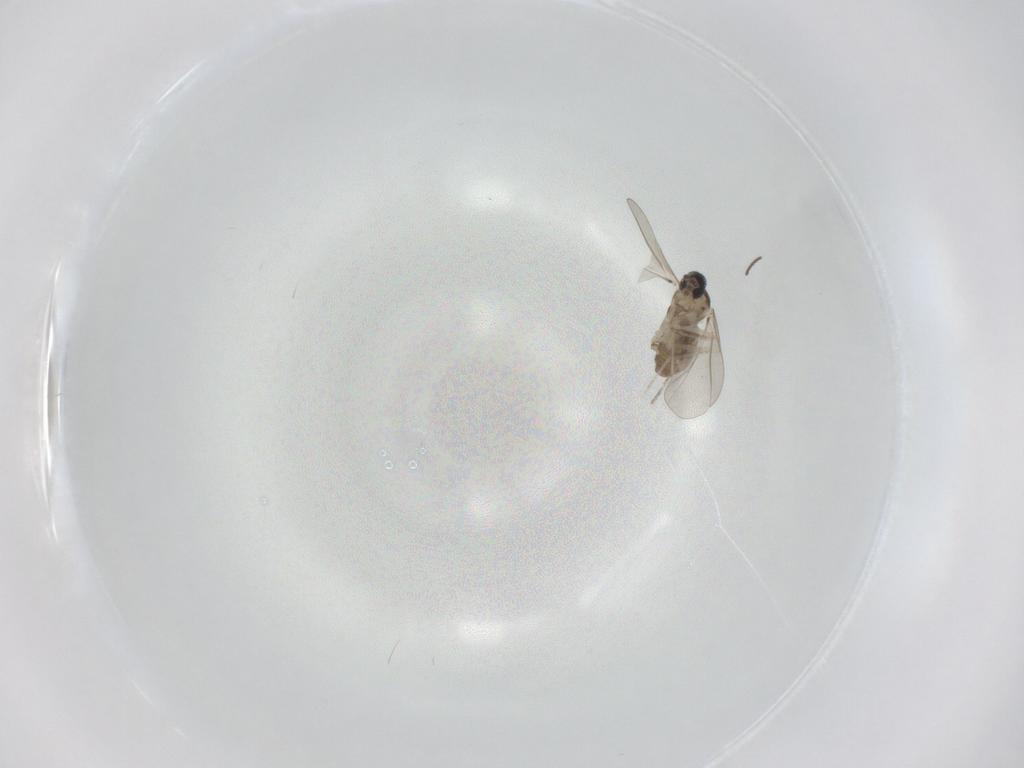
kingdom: Animalia
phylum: Arthropoda
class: Insecta
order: Diptera
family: Cecidomyiidae
